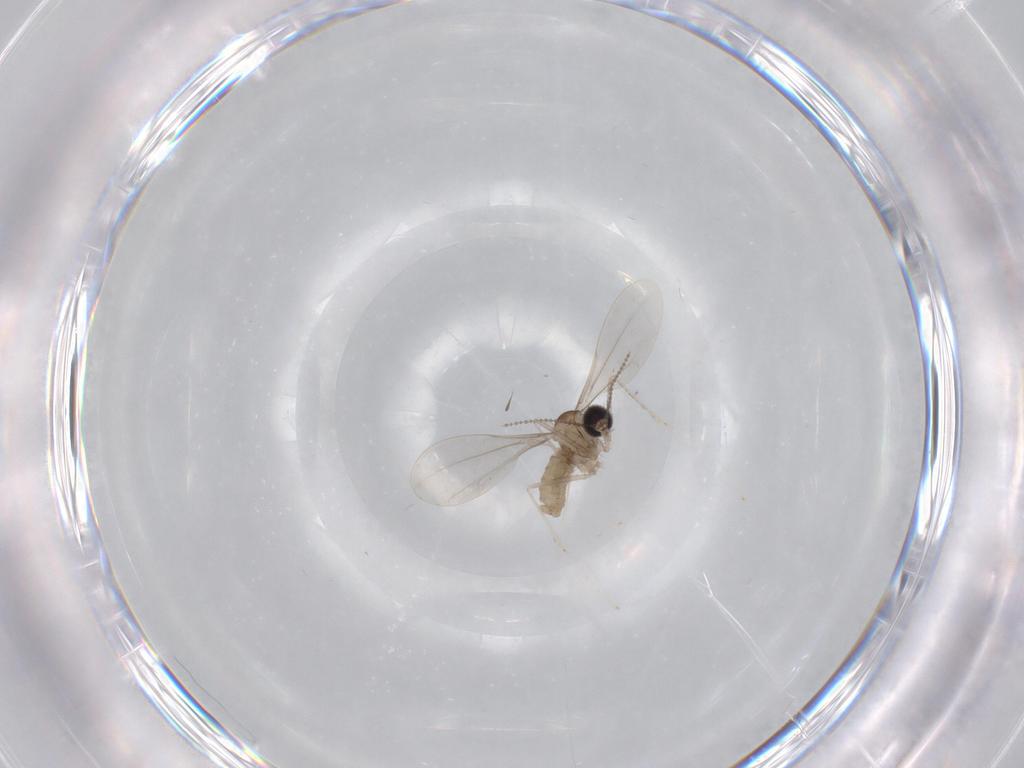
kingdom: Animalia
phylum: Arthropoda
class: Insecta
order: Diptera
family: Cecidomyiidae
